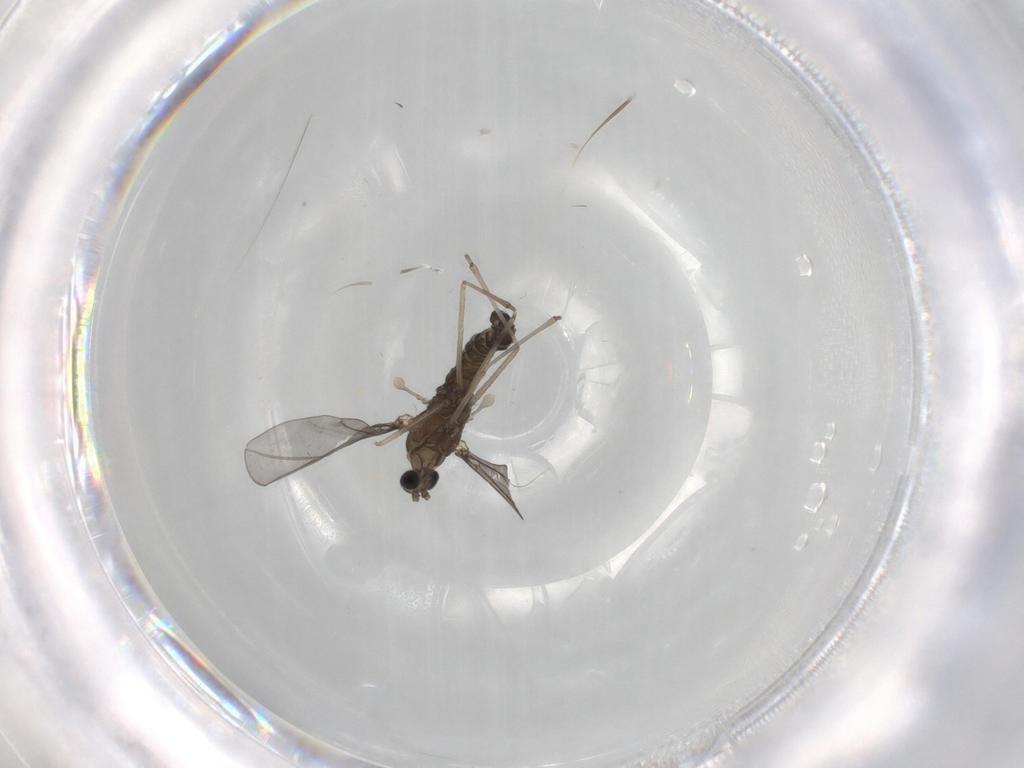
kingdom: Animalia
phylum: Arthropoda
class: Insecta
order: Diptera
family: Cecidomyiidae
